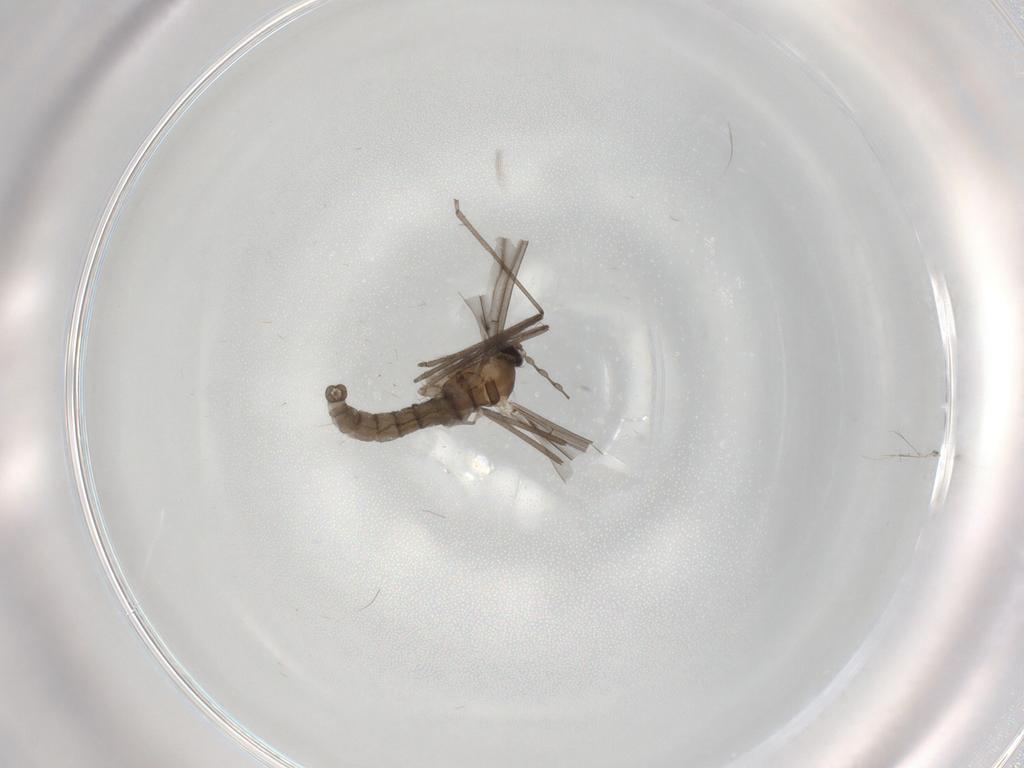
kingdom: Animalia
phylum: Arthropoda
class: Insecta
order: Diptera
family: Cecidomyiidae
